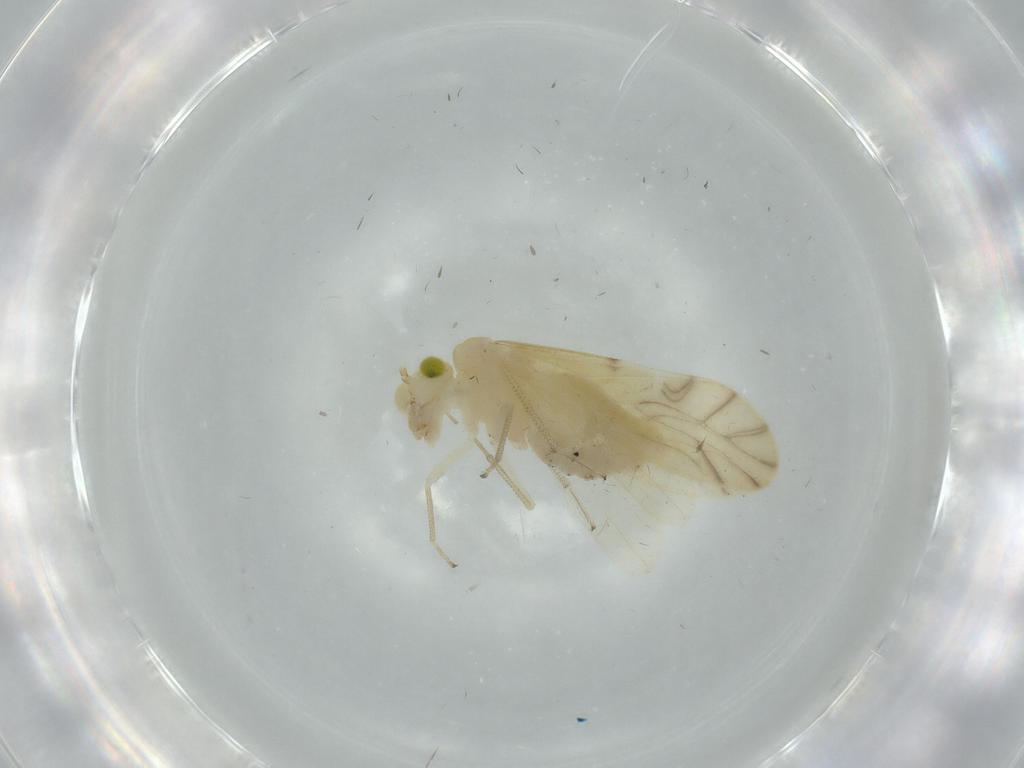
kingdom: Animalia
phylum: Arthropoda
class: Insecta
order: Psocodea
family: Caeciliusidae
